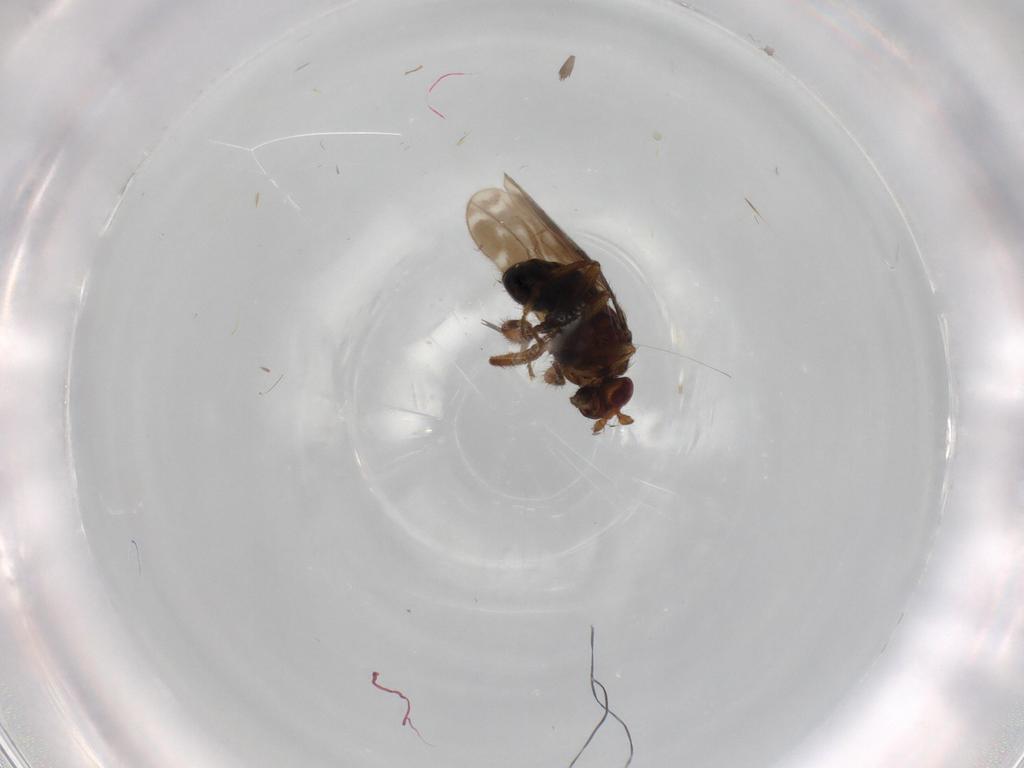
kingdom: Animalia
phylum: Arthropoda
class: Insecta
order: Diptera
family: Sphaeroceridae
